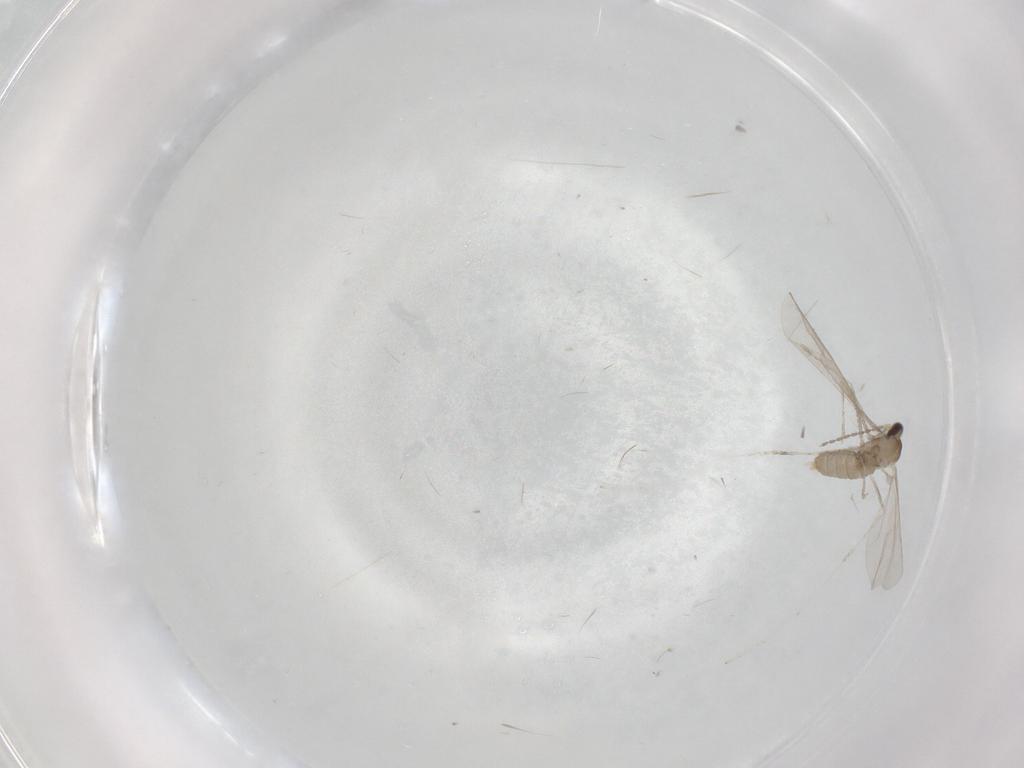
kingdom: Animalia
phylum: Arthropoda
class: Insecta
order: Diptera
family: Cecidomyiidae
